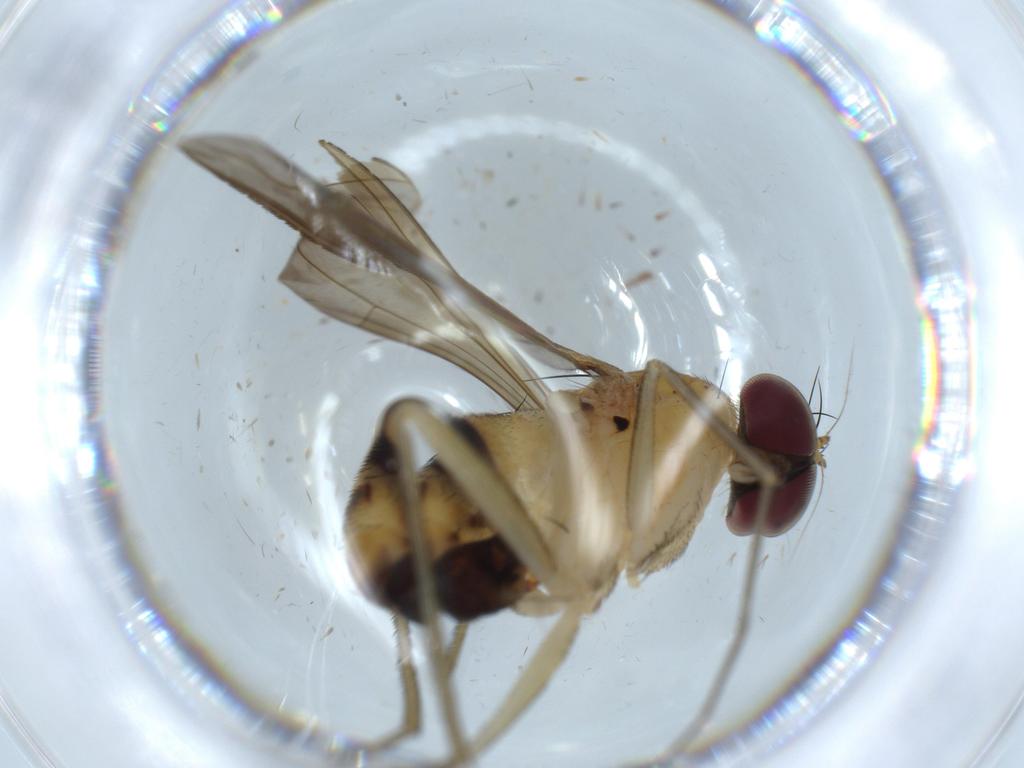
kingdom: Animalia
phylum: Arthropoda
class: Insecta
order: Diptera
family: Dolichopodidae
